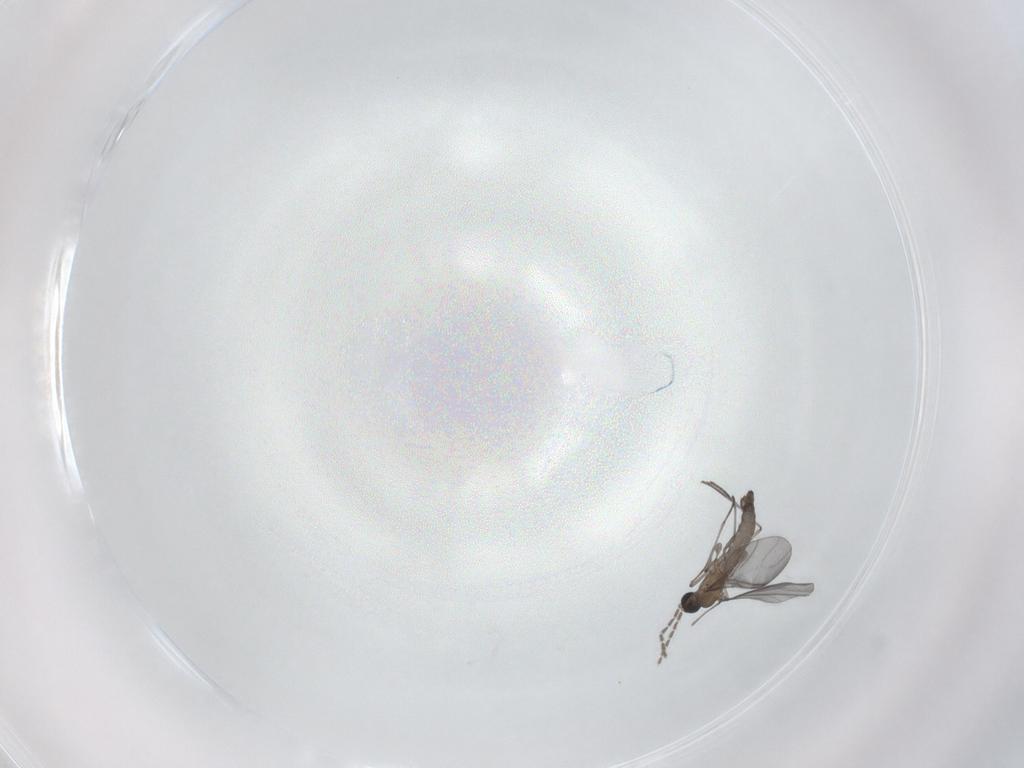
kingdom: Animalia
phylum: Arthropoda
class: Insecta
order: Diptera
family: Sciaridae
